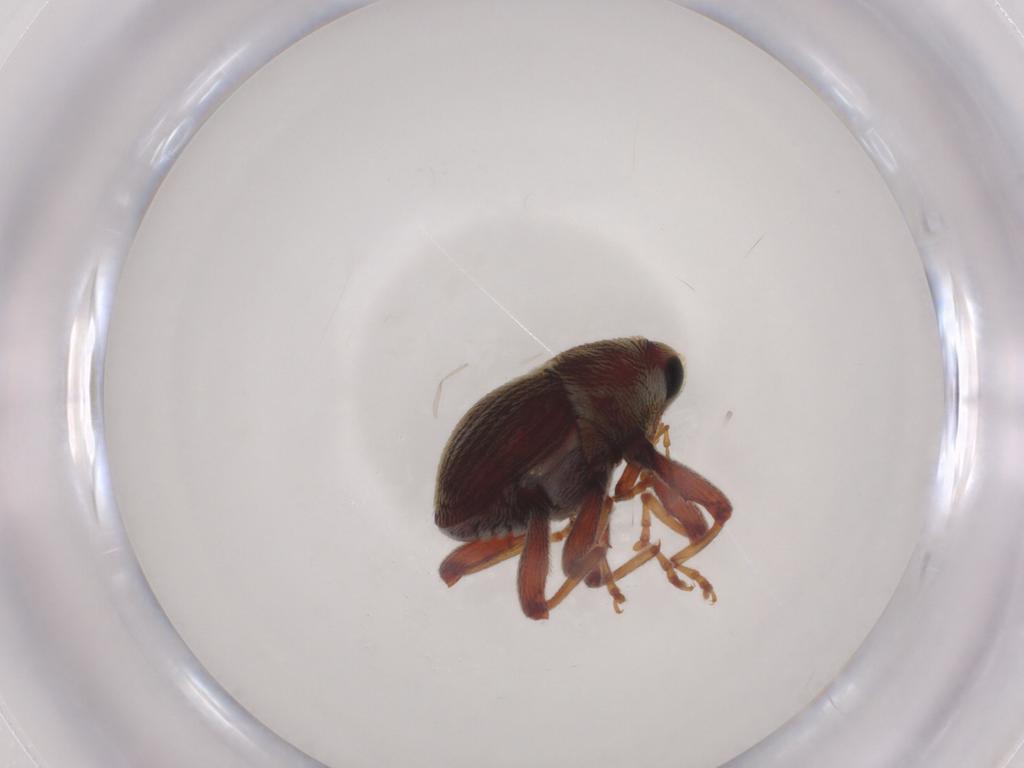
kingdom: Animalia
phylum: Arthropoda
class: Insecta
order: Coleoptera
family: Curculionidae
